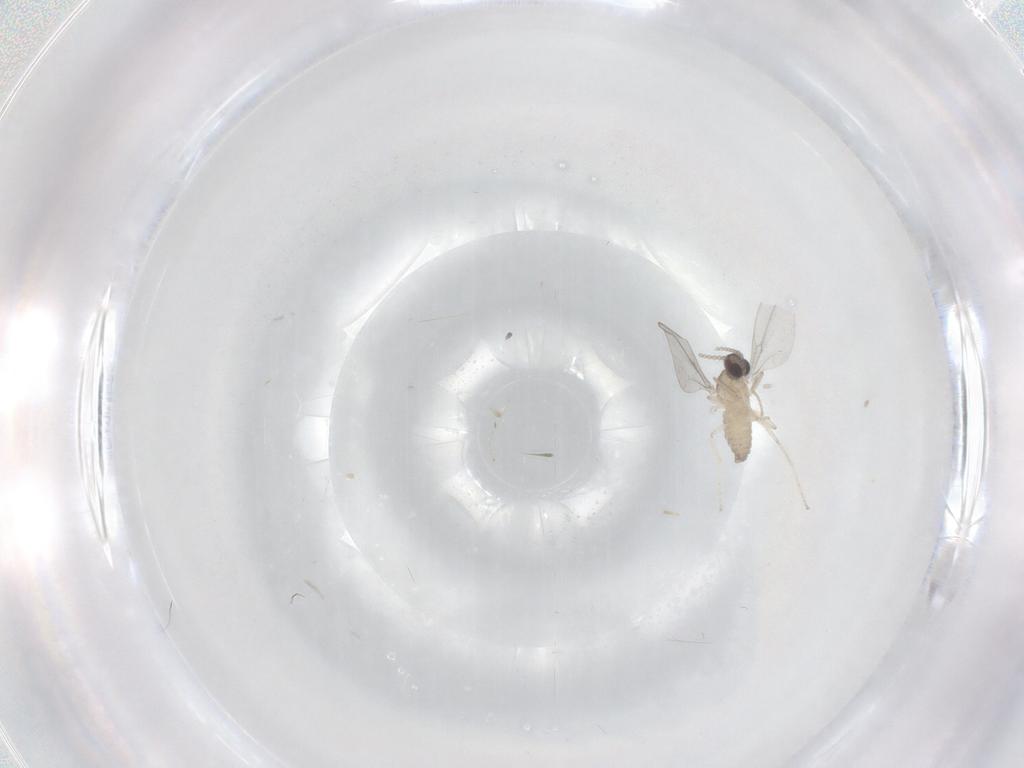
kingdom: Animalia
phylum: Arthropoda
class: Insecta
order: Diptera
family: Cecidomyiidae
